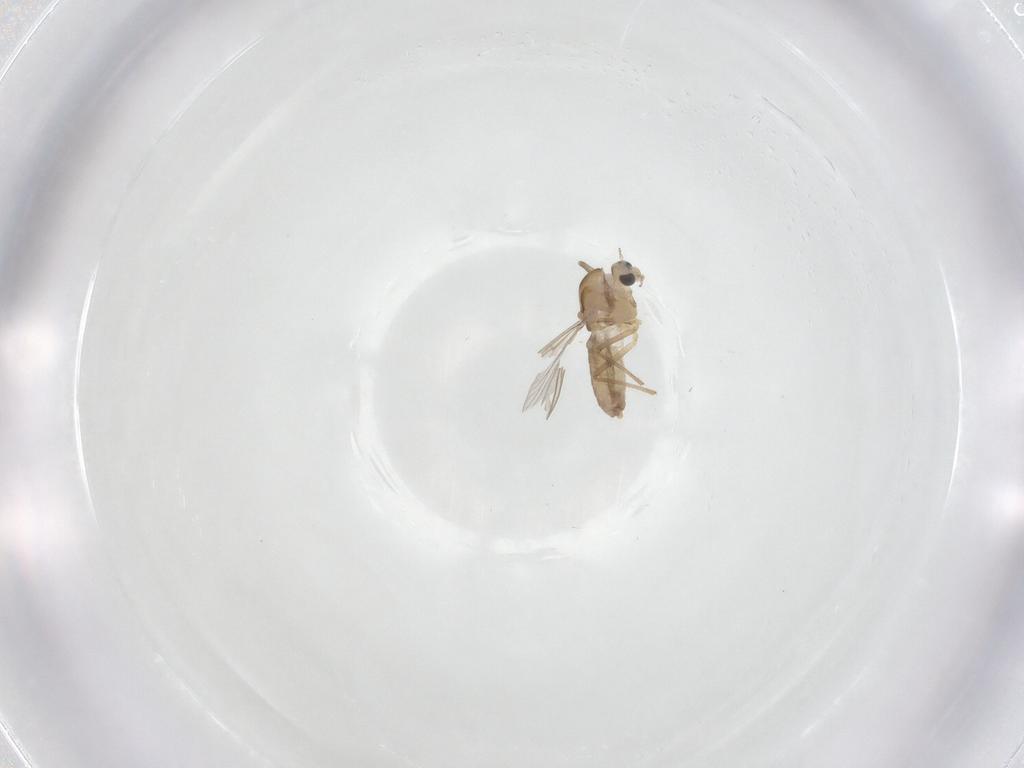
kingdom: Animalia
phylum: Arthropoda
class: Insecta
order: Diptera
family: Chironomidae
